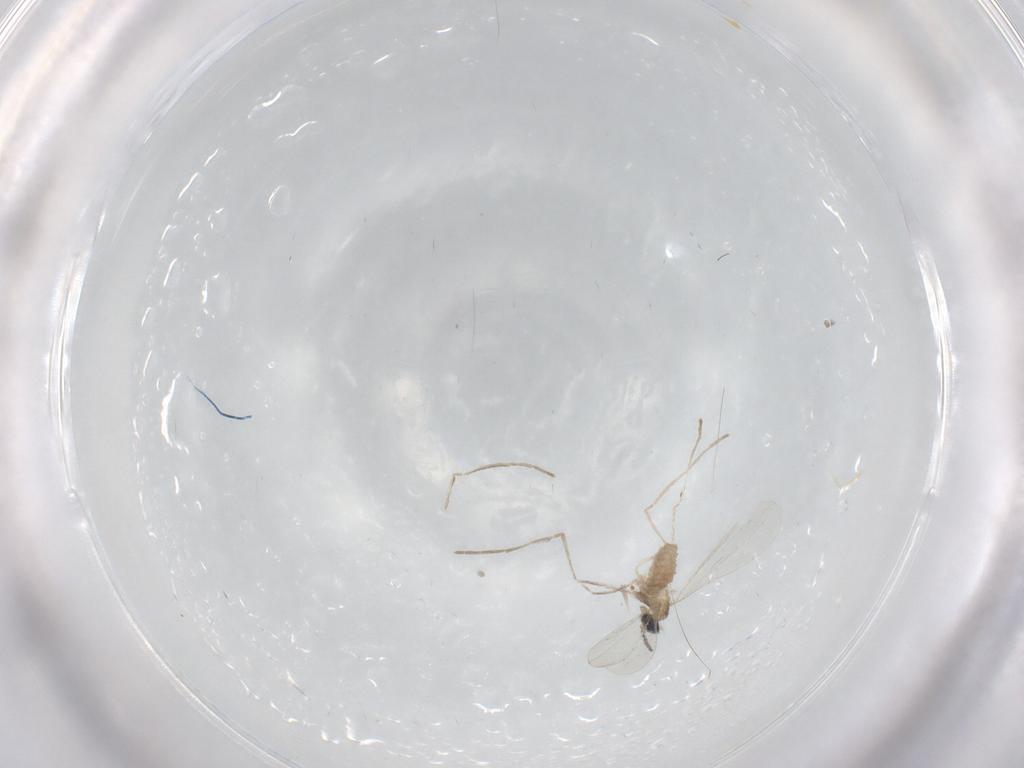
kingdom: Animalia
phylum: Arthropoda
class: Insecta
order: Diptera
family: Cecidomyiidae
